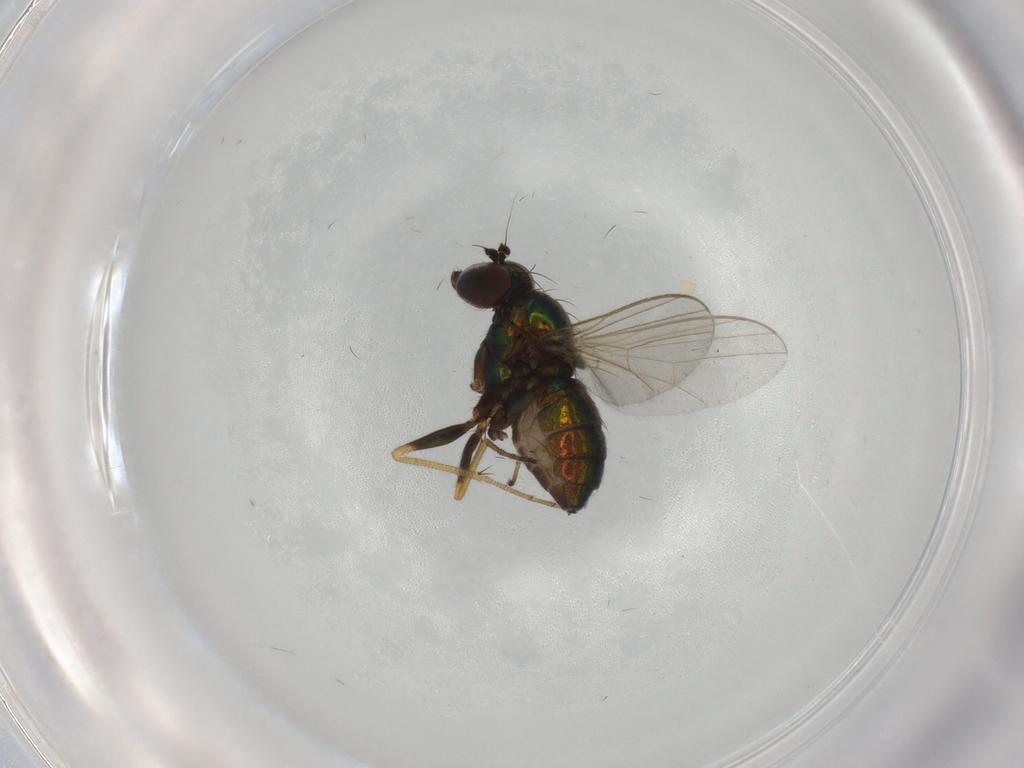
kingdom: Animalia
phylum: Arthropoda
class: Insecta
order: Diptera
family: Dolichopodidae
